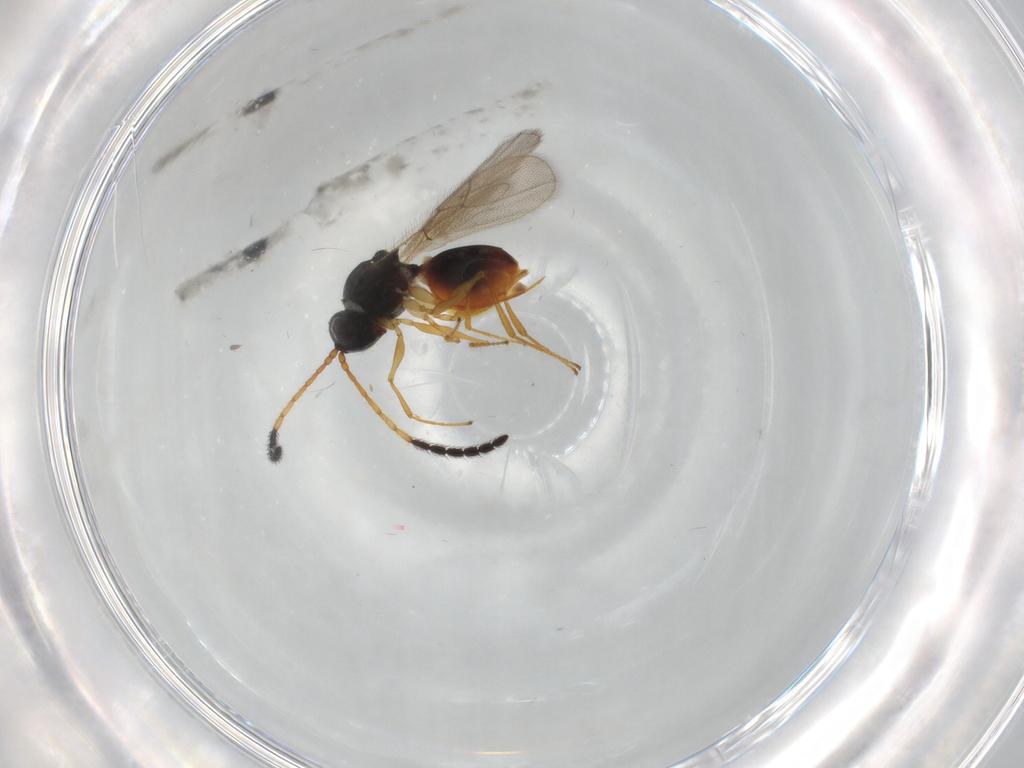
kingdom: Animalia
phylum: Arthropoda
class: Insecta
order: Hymenoptera
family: Figitidae
